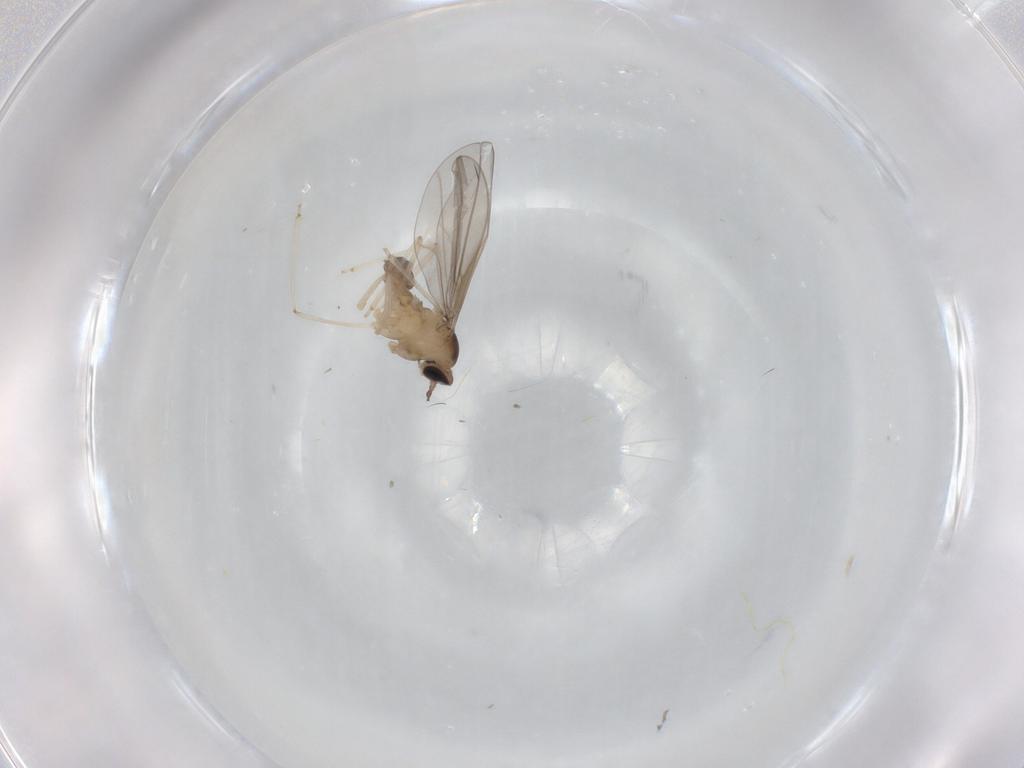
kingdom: Animalia
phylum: Arthropoda
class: Insecta
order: Diptera
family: Cecidomyiidae
